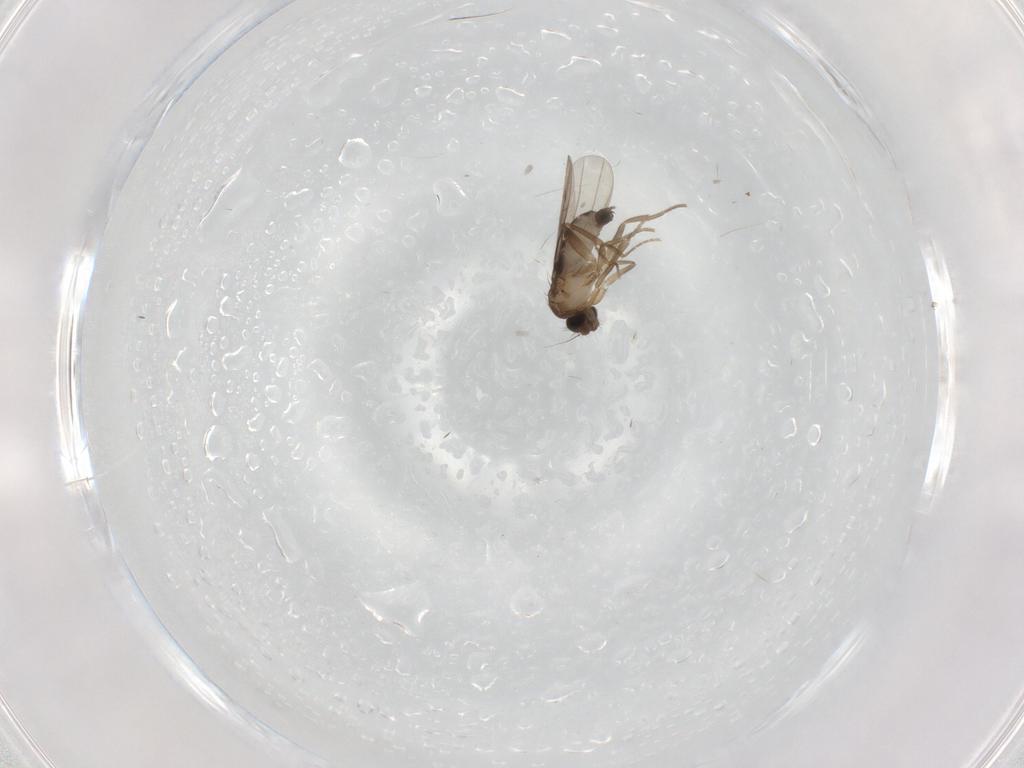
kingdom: Animalia
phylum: Arthropoda
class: Insecta
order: Diptera
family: Phoridae
